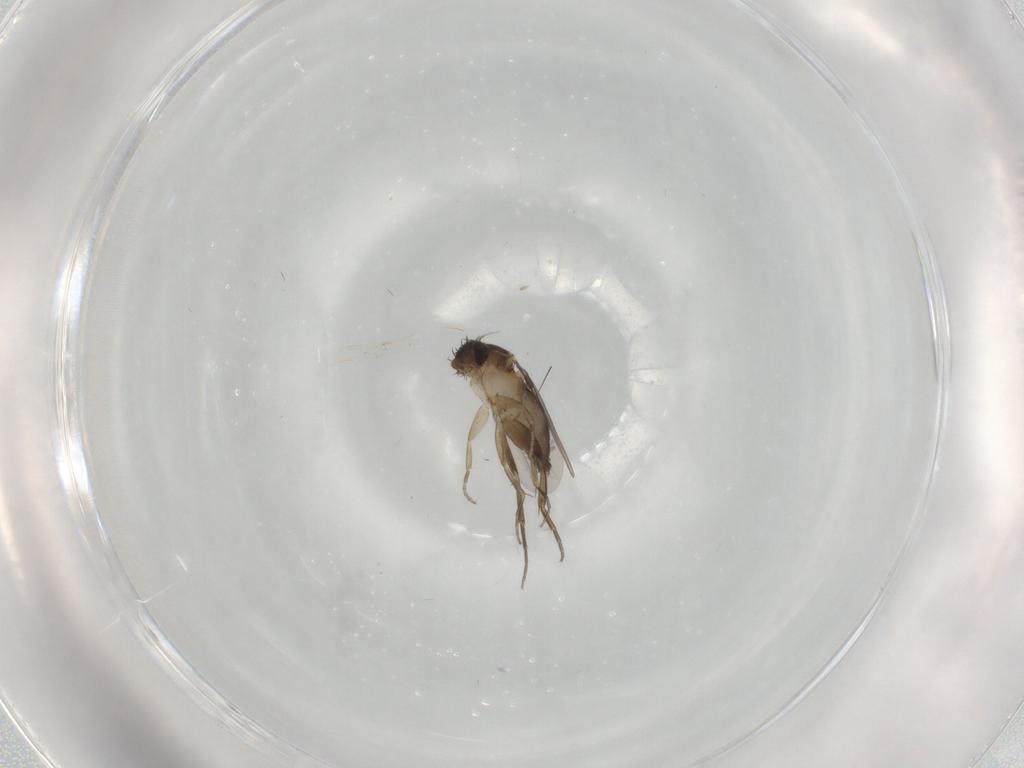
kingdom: Animalia
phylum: Arthropoda
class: Insecta
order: Diptera
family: Phoridae
